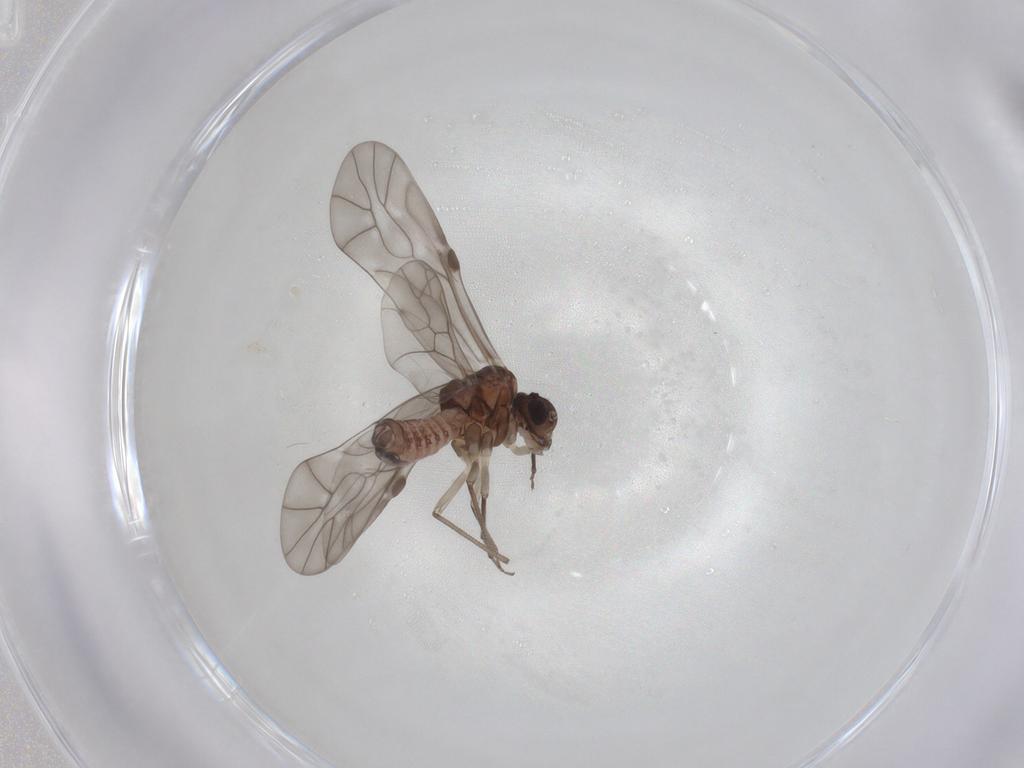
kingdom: Animalia
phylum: Arthropoda
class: Insecta
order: Psocodea
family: Peripsocidae
